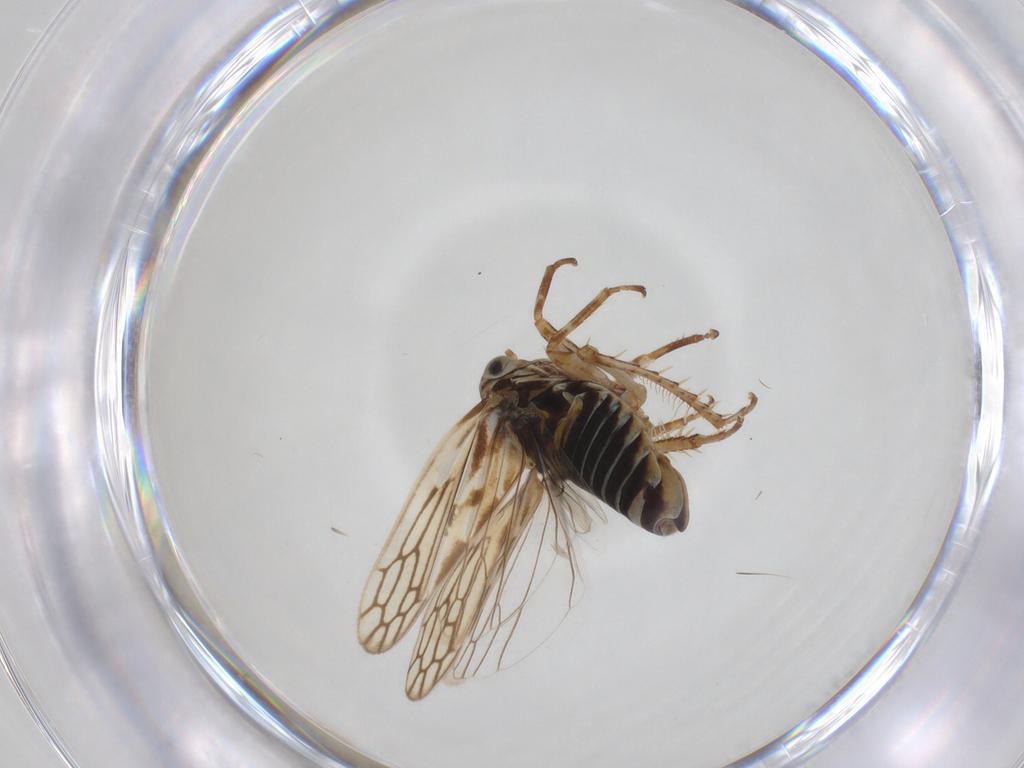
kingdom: Animalia
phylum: Arthropoda
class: Insecta
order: Hemiptera
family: Cicadellidae
